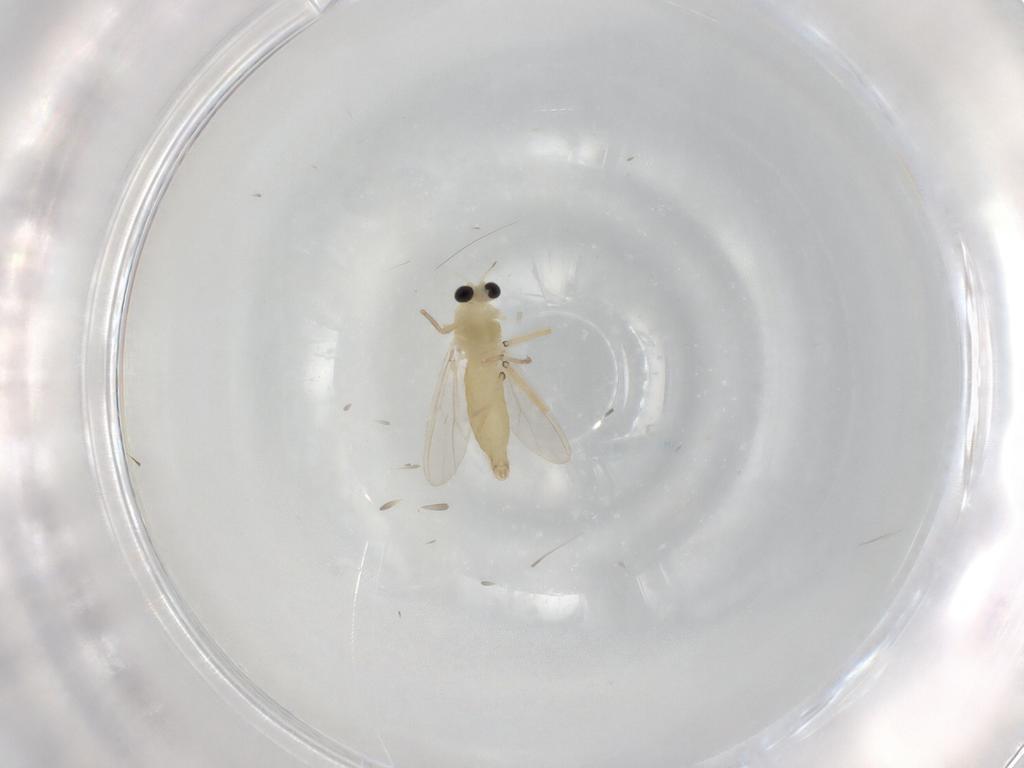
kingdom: Animalia
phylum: Arthropoda
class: Insecta
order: Diptera
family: Chironomidae
